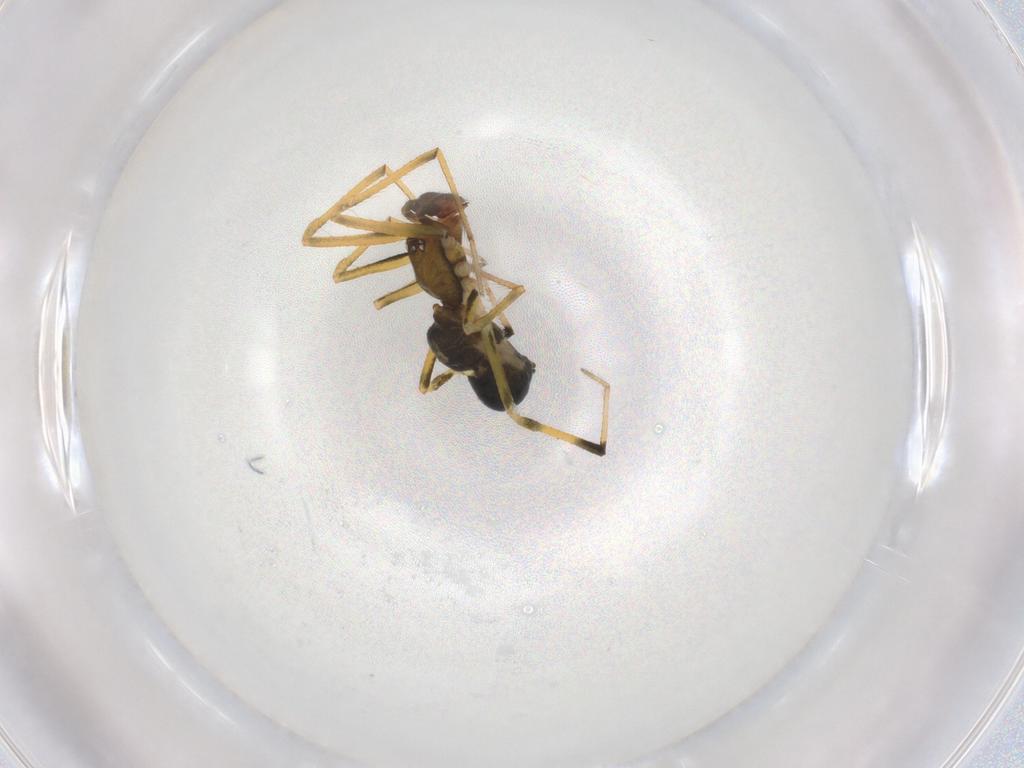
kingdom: Animalia
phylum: Arthropoda
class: Arachnida
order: Araneae
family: Theridiidae
